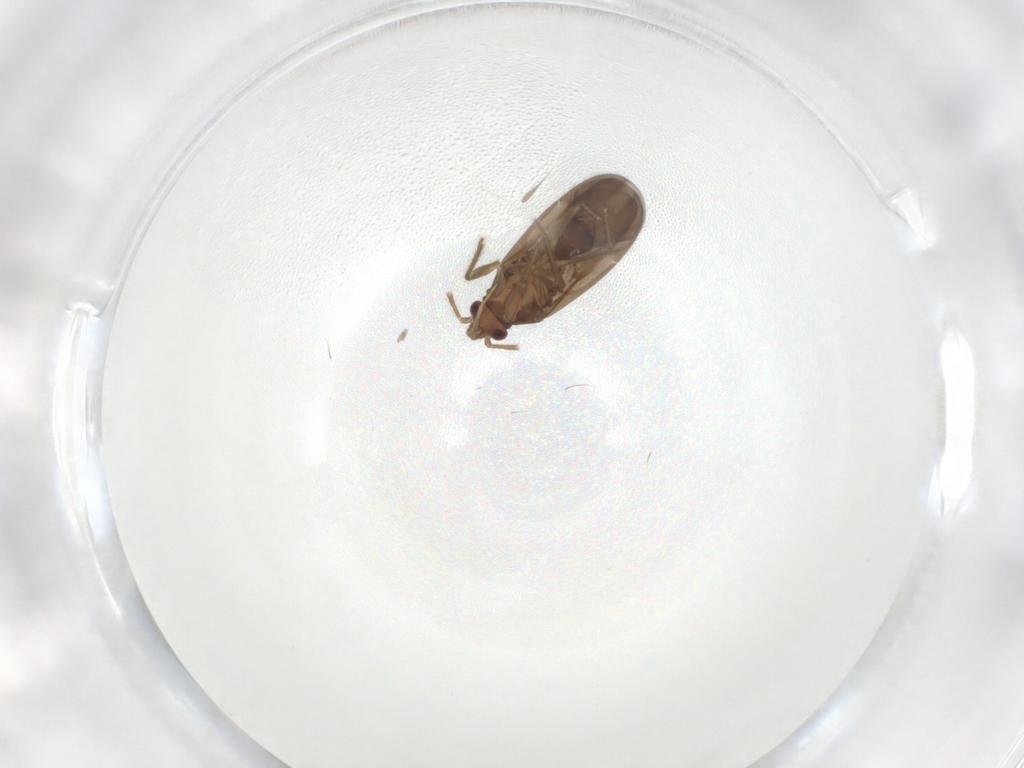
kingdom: Animalia
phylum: Arthropoda
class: Insecta
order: Hemiptera
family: Ceratocombidae
